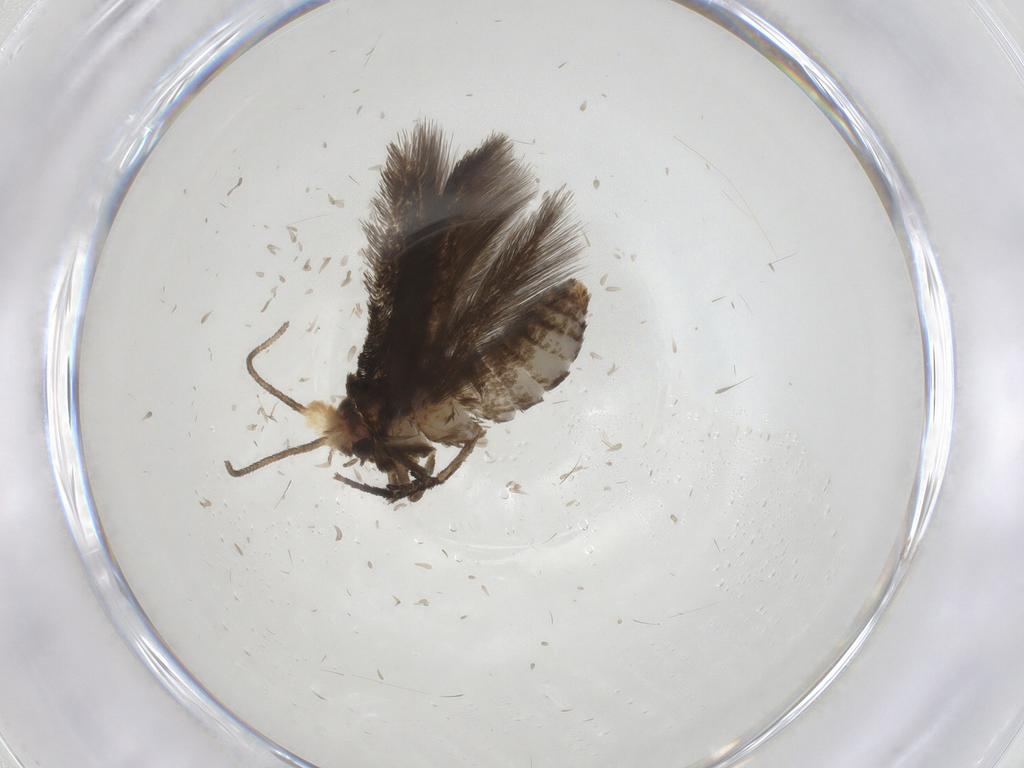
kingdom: Animalia
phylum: Arthropoda
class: Insecta
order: Lepidoptera
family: Nepticulidae
